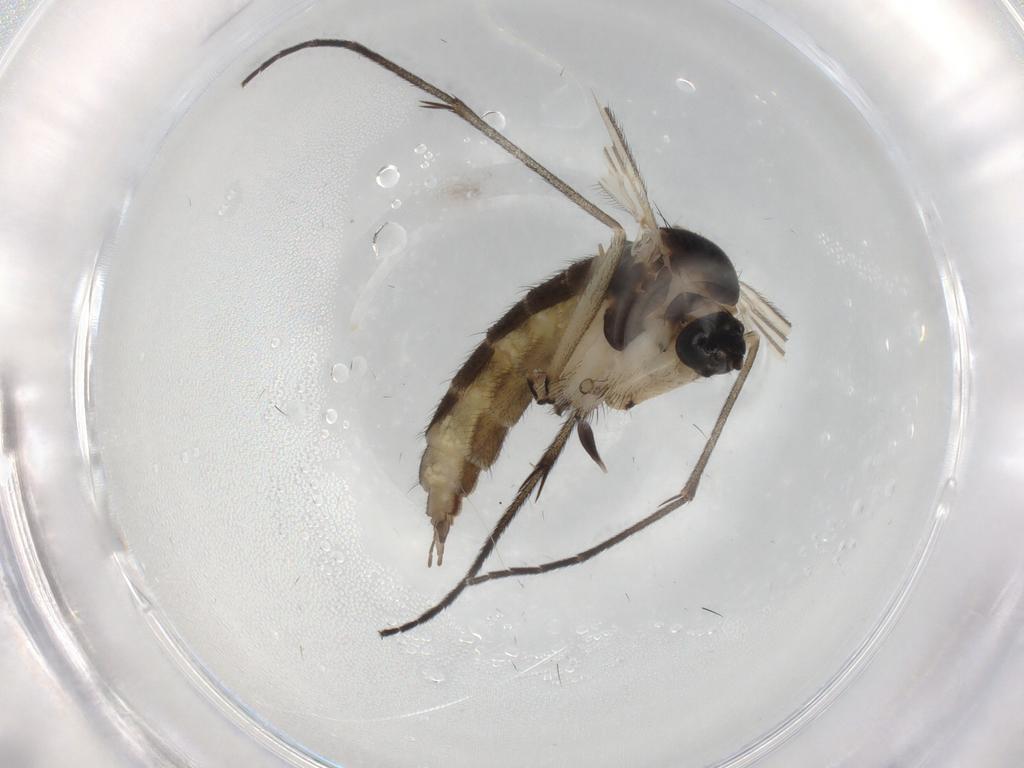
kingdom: Animalia
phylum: Arthropoda
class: Insecta
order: Diptera
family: Sciaridae
